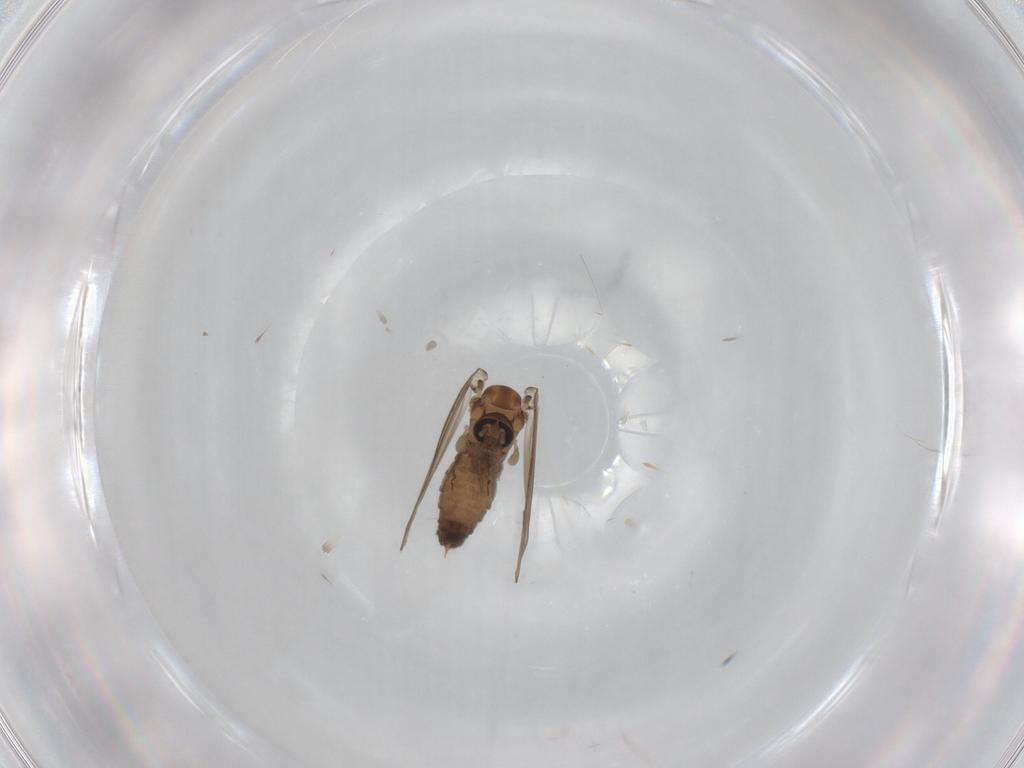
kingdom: Animalia
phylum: Arthropoda
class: Insecta
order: Diptera
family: Psychodidae
